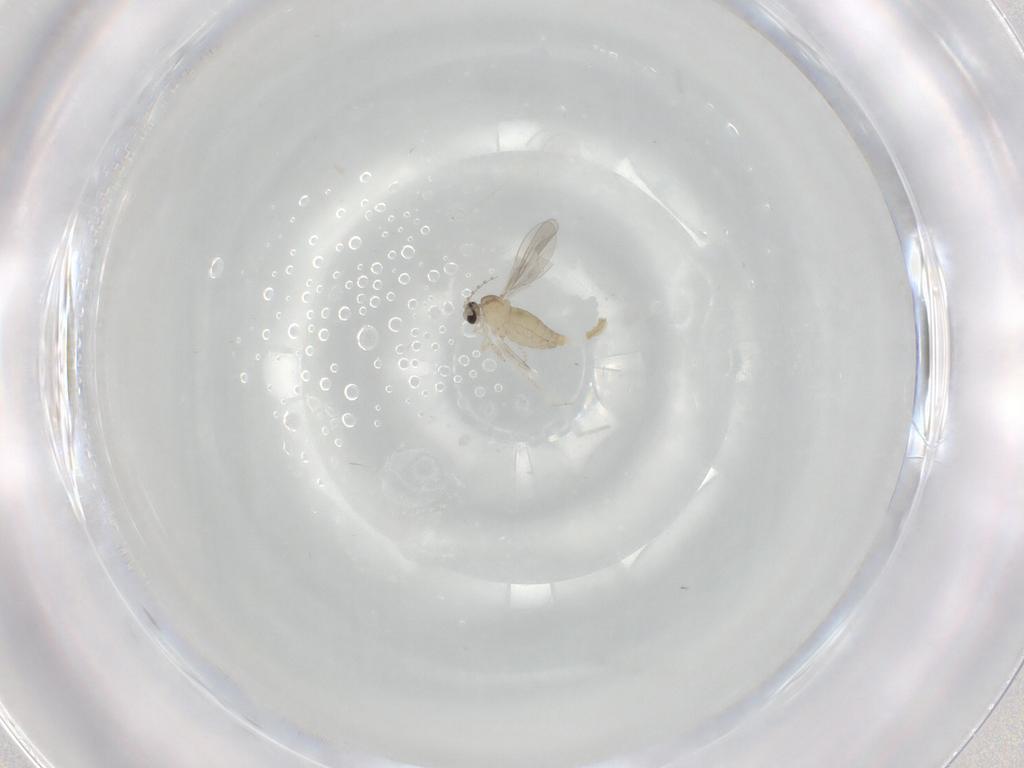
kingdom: Animalia
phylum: Arthropoda
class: Insecta
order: Diptera
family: Cecidomyiidae
